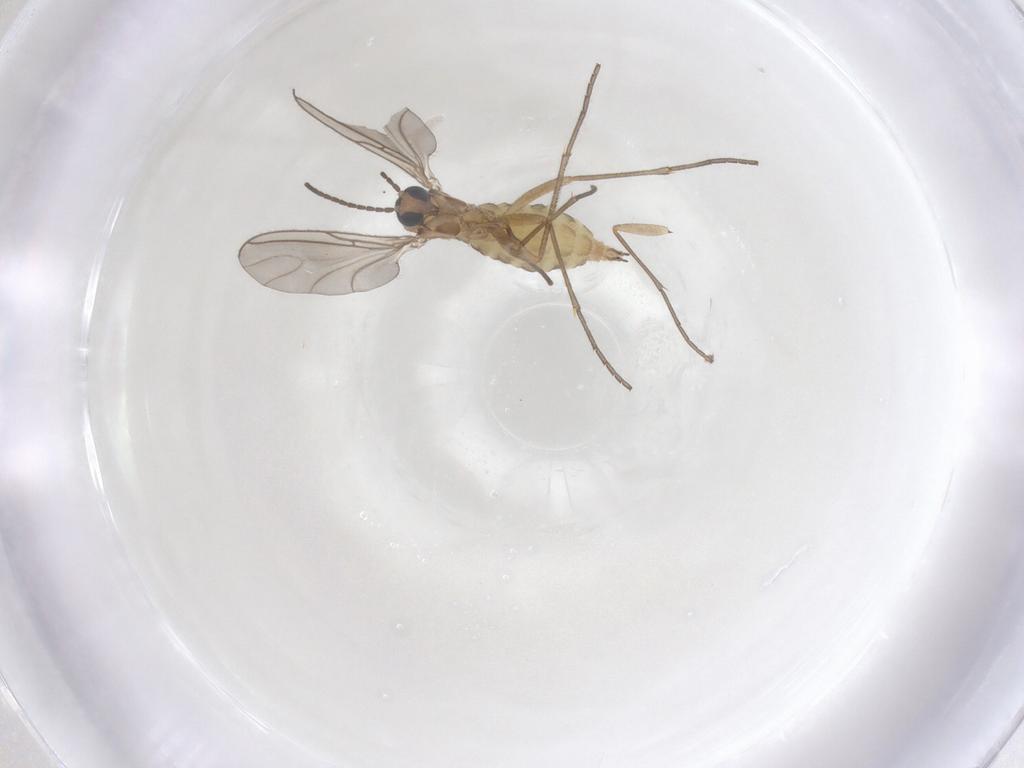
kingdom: Animalia
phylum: Arthropoda
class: Insecta
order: Diptera
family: Sciaridae
